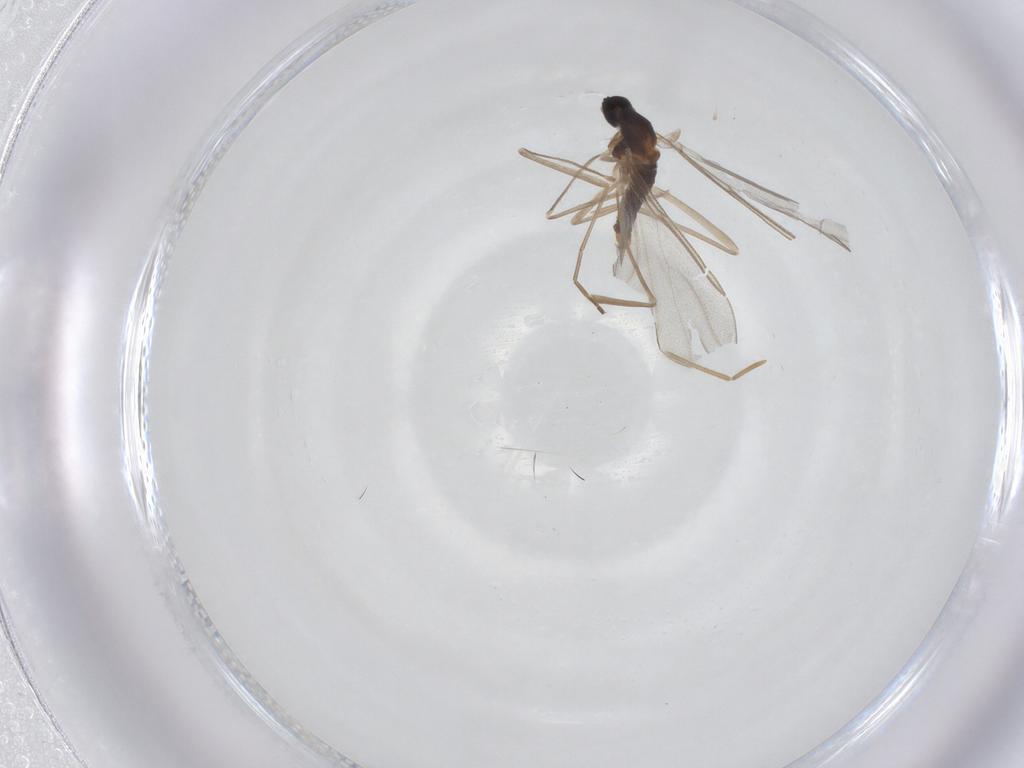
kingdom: Animalia
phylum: Arthropoda
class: Insecta
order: Diptera
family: Cecidomyiidae
